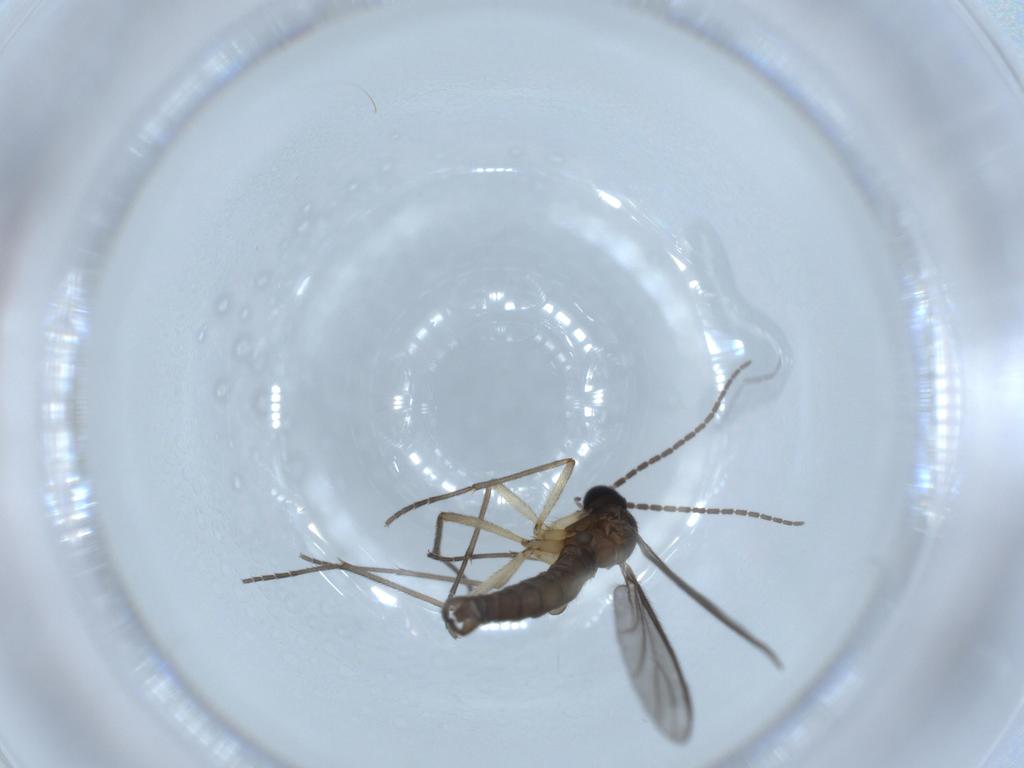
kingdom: Animalia
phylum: Arthropoda
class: Insecta
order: Diptera
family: Sciaridae
